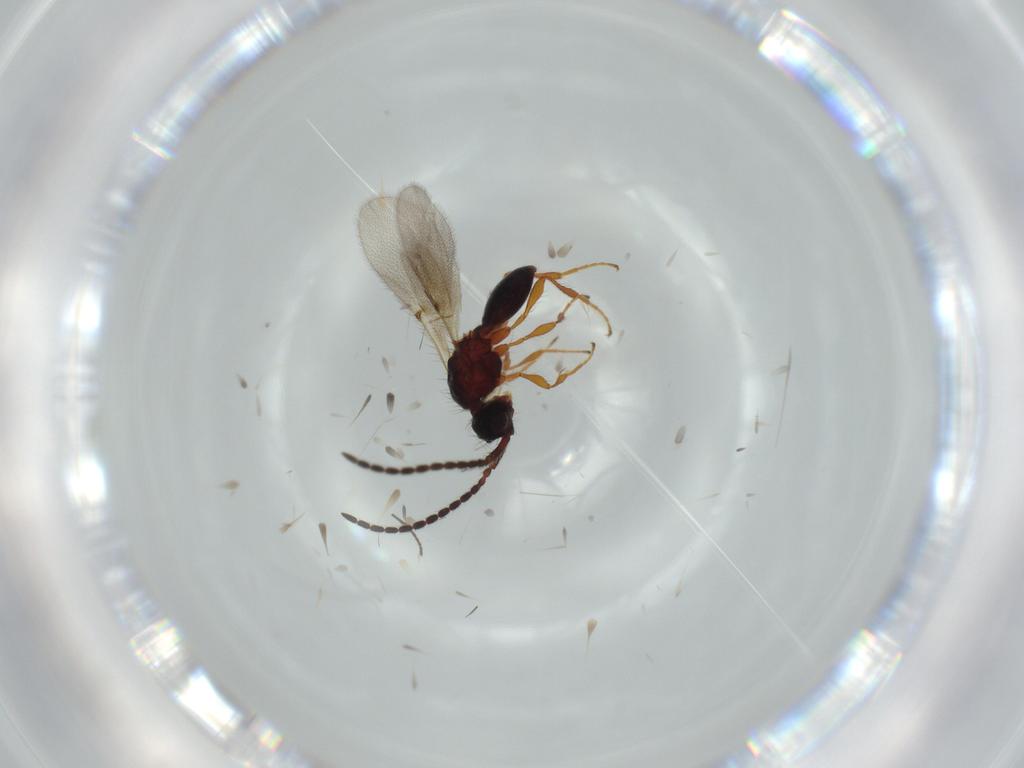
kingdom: Animalia
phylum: Arthropoda
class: Insecta
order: Hymenoptera
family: Diapriidae
